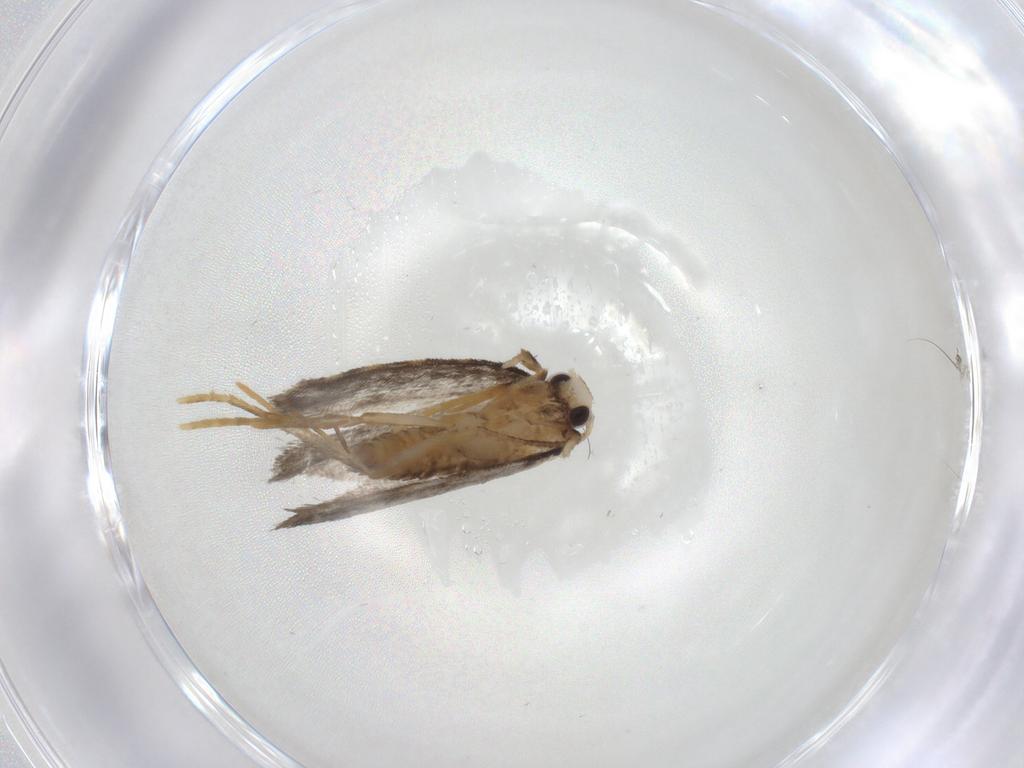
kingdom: Animalia
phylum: Arthropoda
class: Insecta
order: Lepidoptera
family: Psychidae
